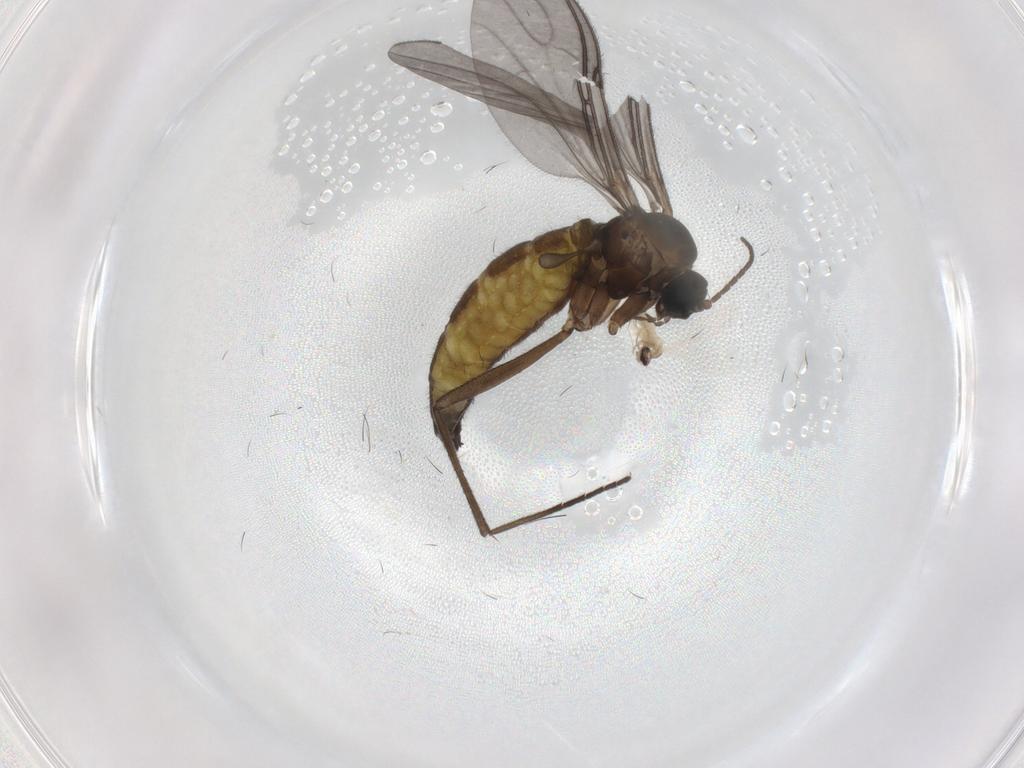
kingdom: Animalia
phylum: Arthropoda
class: Insecta
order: Diptera
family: Cecidomyiidae
